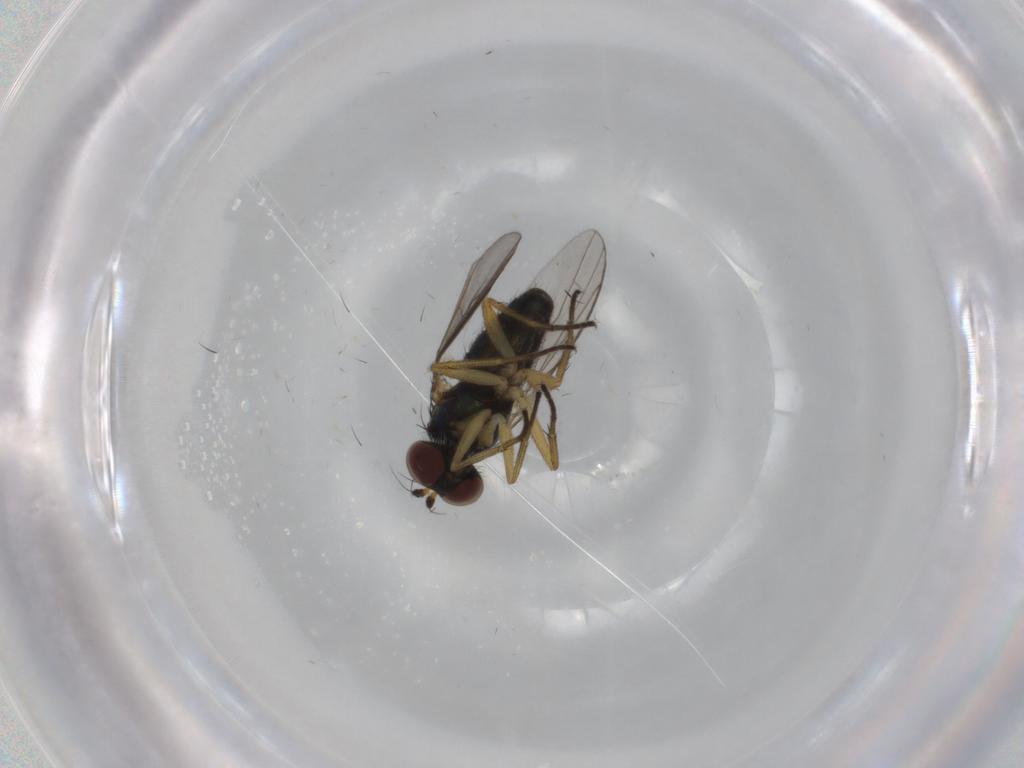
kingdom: Animalia
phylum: Arthropoda
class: Insecta
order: Diptera
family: Dolichopodidae
